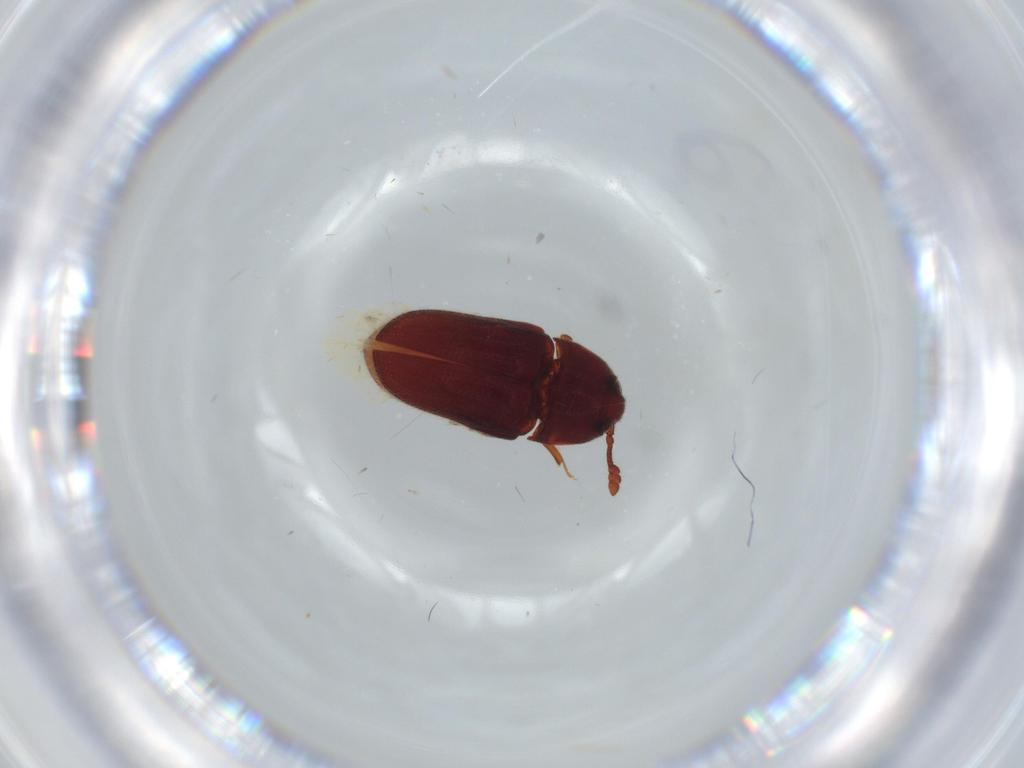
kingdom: Animalia
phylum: Arthropoda
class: Insecta
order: Coleoptera
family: Throscidae
